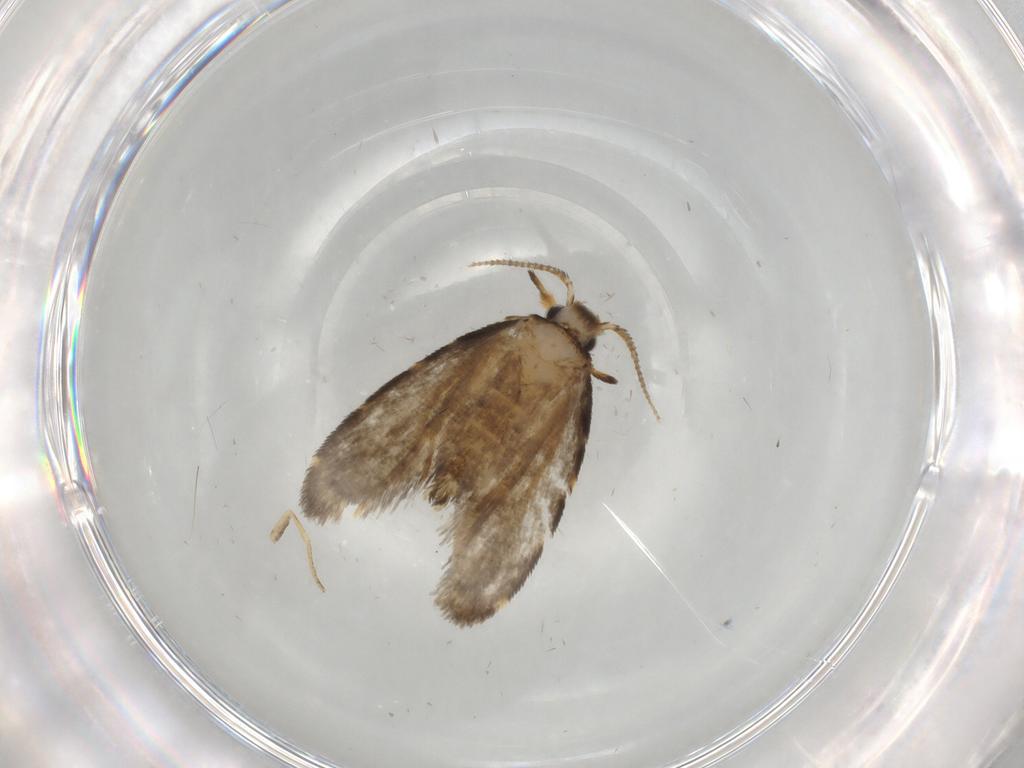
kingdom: Animalia
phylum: Arthropoda
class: Insecta
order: Lepidoptera
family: Psychidae
